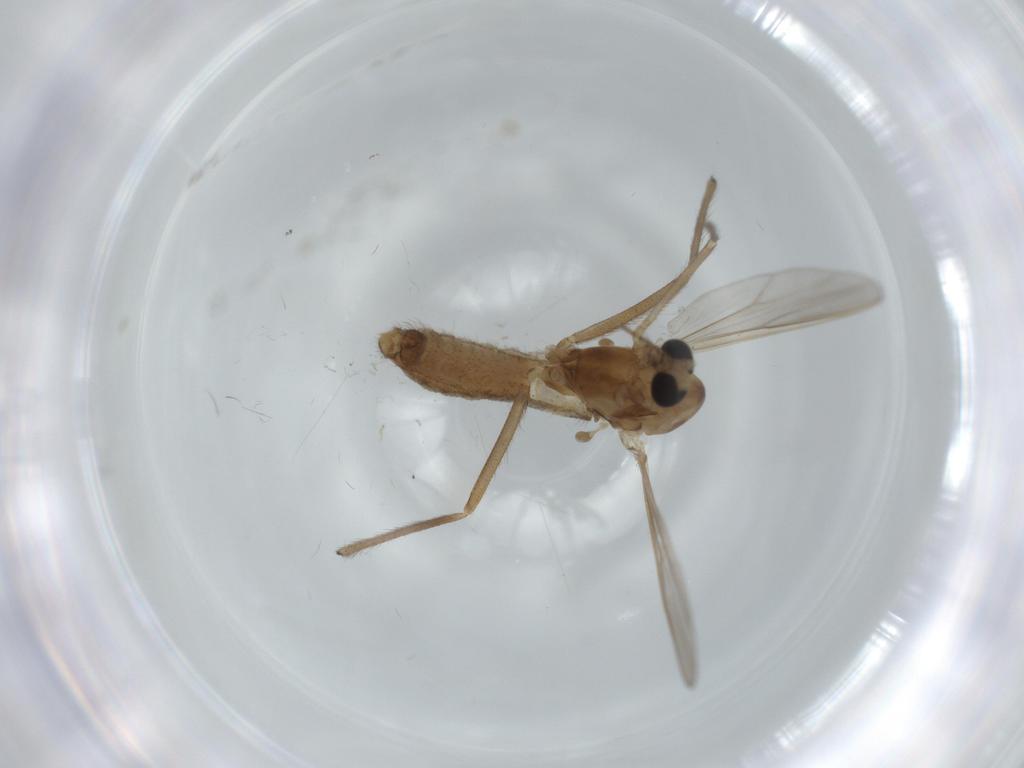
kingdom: Animalia
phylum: Arthropoda
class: Insecta
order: Diptera
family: Chironomidae
